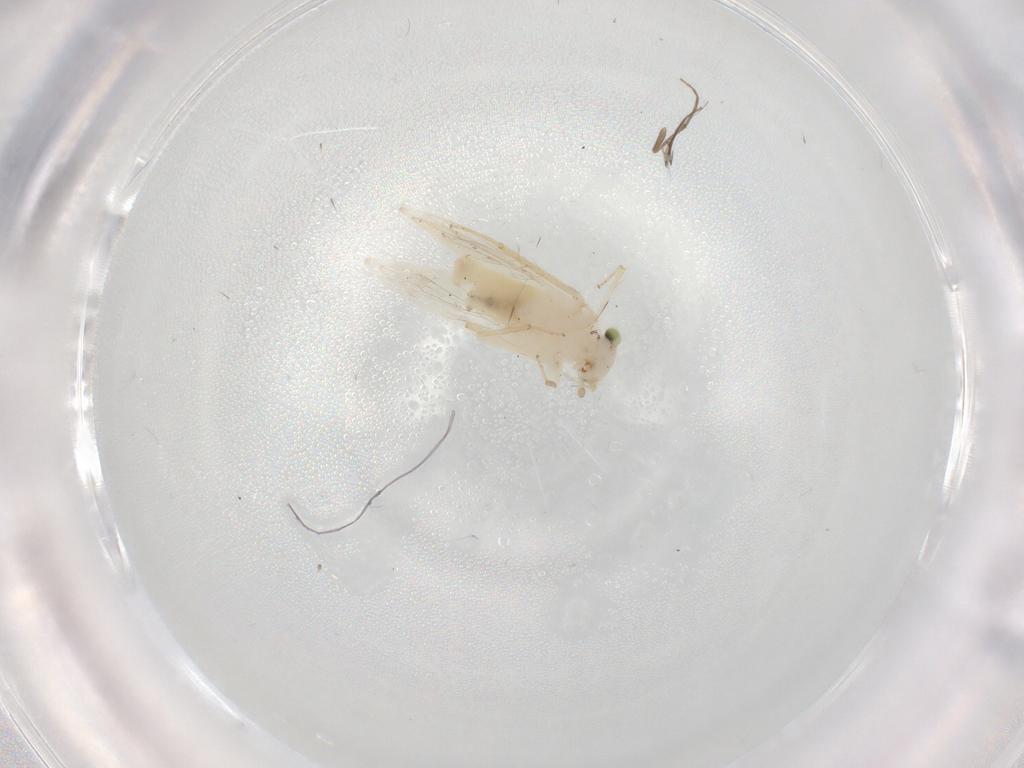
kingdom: Animalia
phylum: Arthropoda
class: Insecta
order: Psocodea
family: Lepidopsocidae
